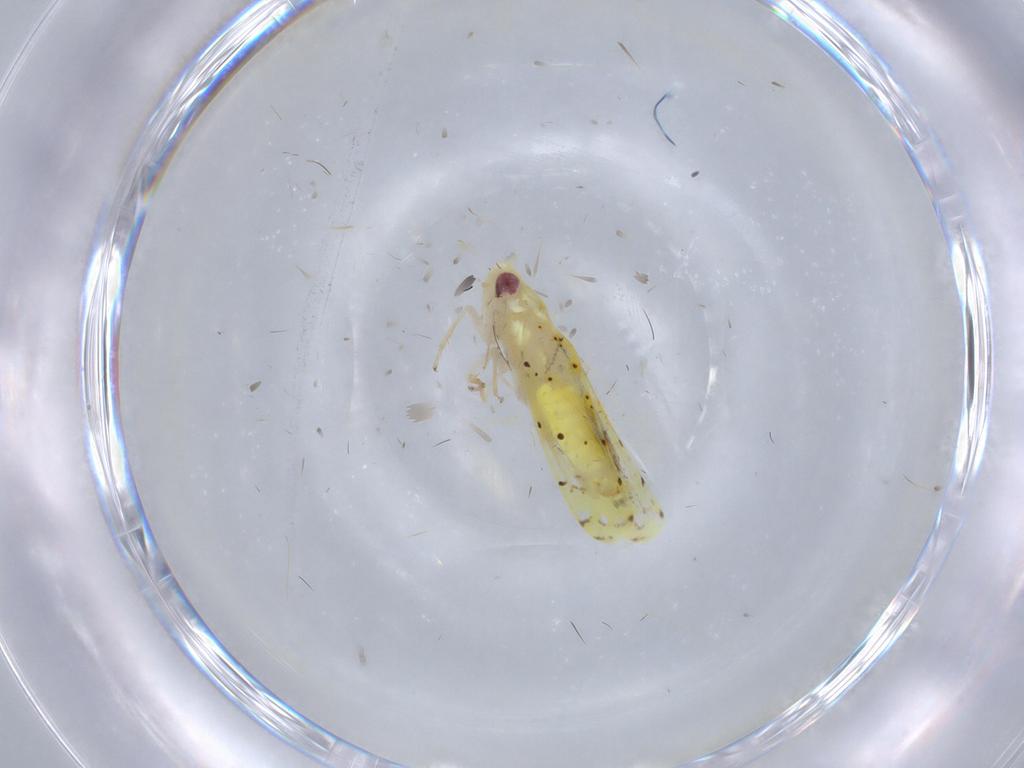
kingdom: Animalia
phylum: Arthropoda
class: Insecta
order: Hemiptera
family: Cicadellidae
